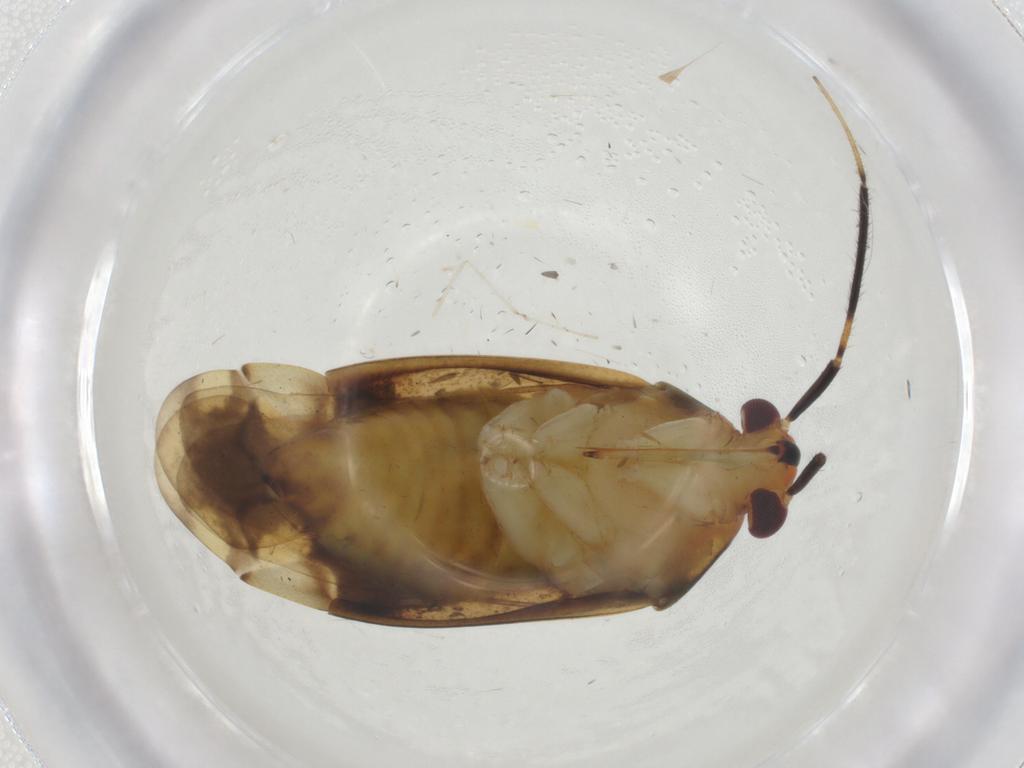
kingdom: Animalia
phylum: Arthropoda
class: Insecta
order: Hemiptera
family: Miridae
